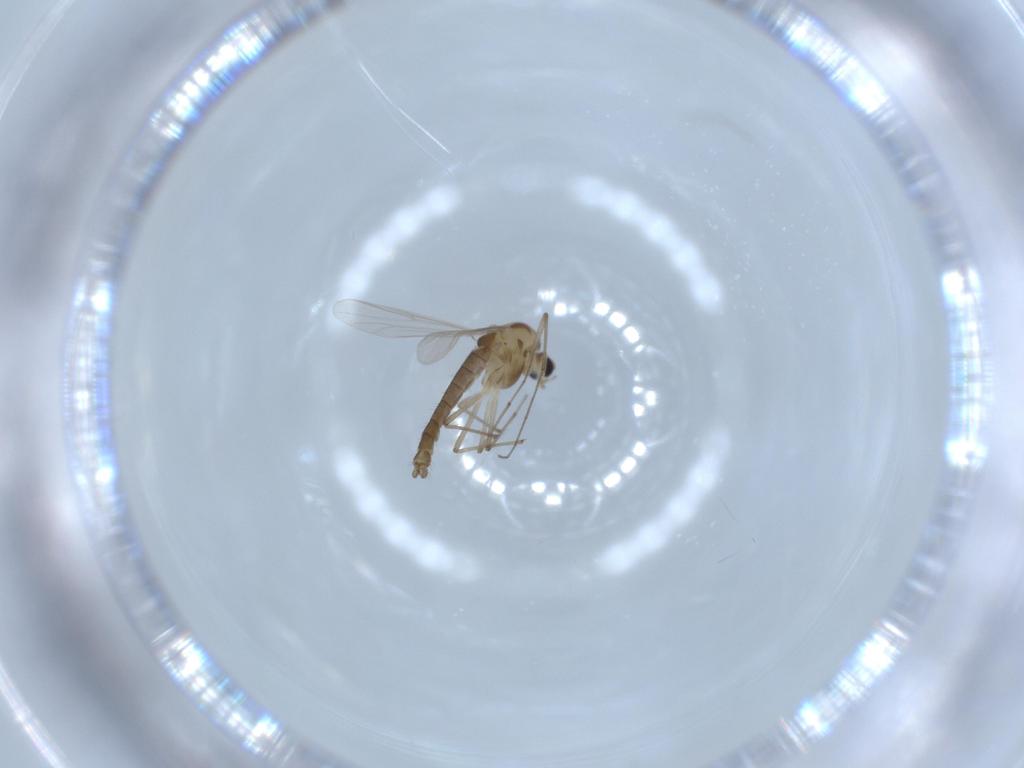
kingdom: Animalia
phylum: Arthropoda
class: Insecta
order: Diptera
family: Chironomidae
